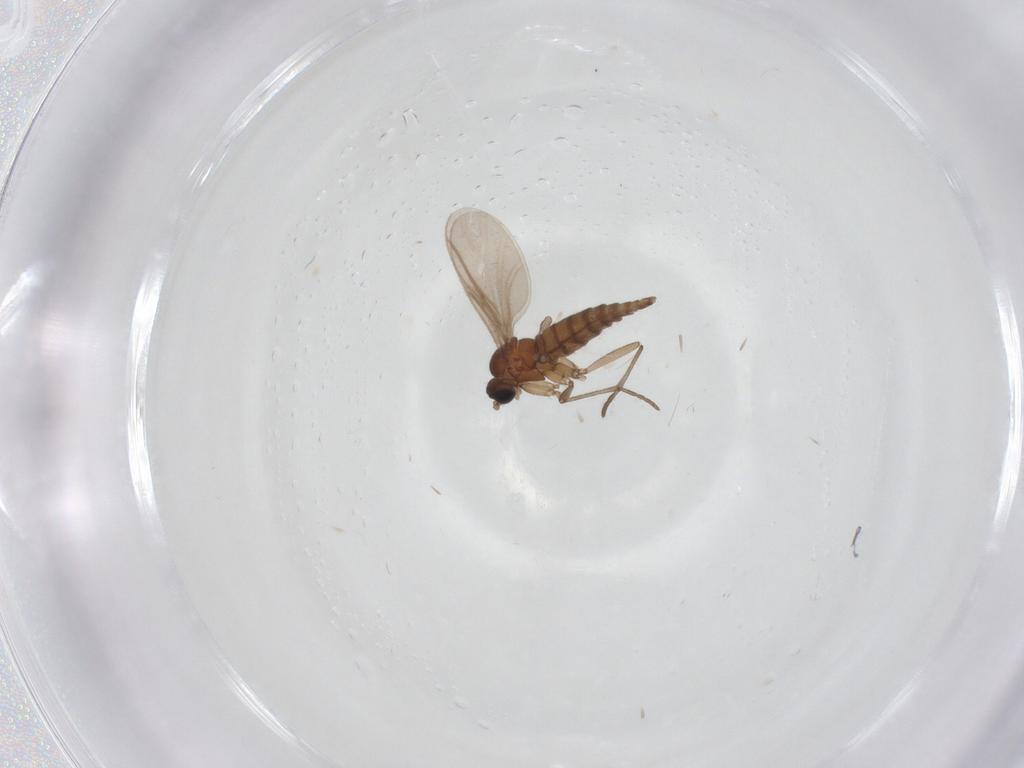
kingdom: Animalia
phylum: Arthropoda
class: Insecta
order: Diptera
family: Sciaridae
